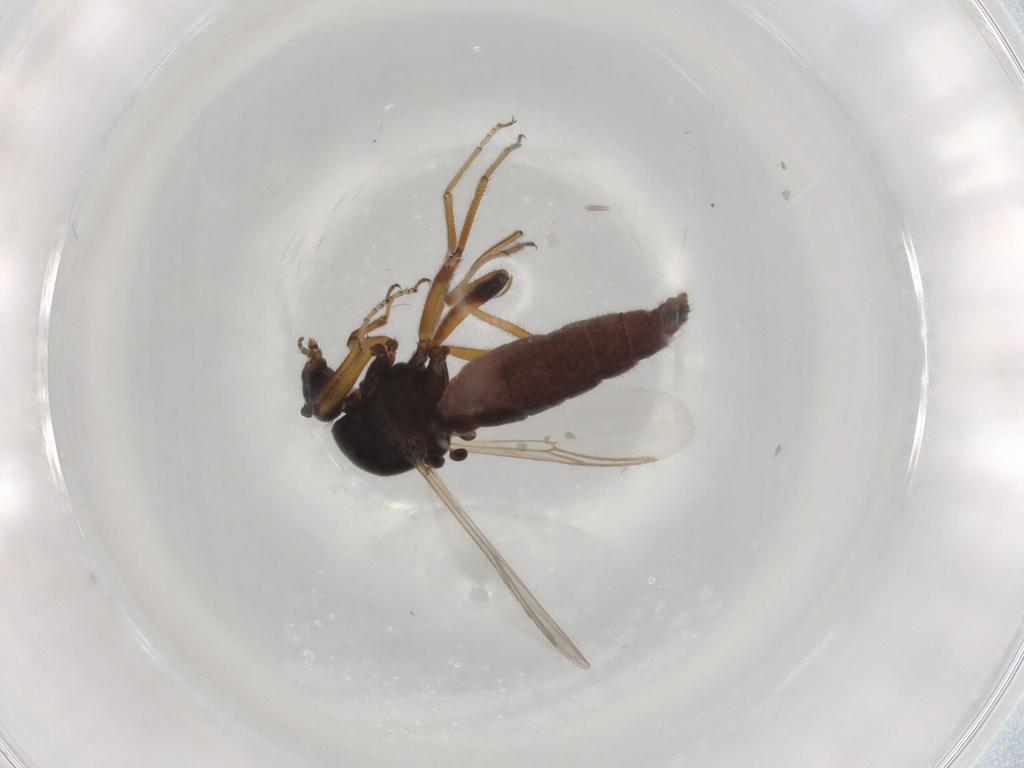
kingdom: Animalia
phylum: Arthropoda
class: Insecta
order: Diptera
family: Ceratopogonidae
